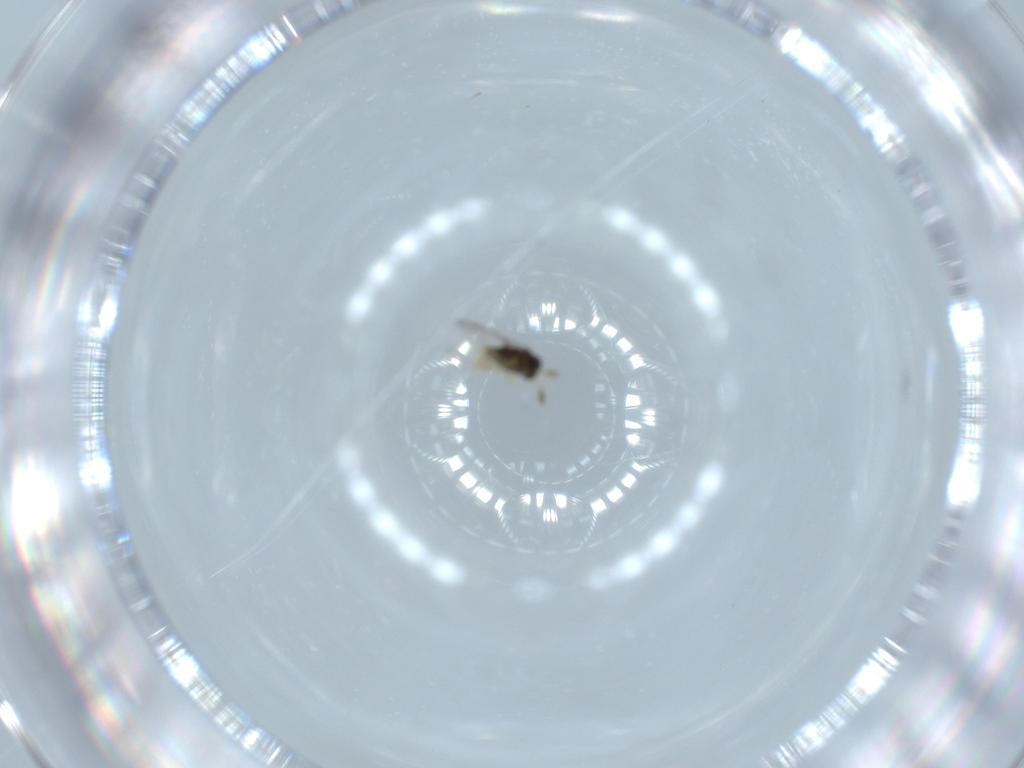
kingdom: Animalia
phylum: Arthropoda
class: Insecta
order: Hymenoptera
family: Encyrtidae
